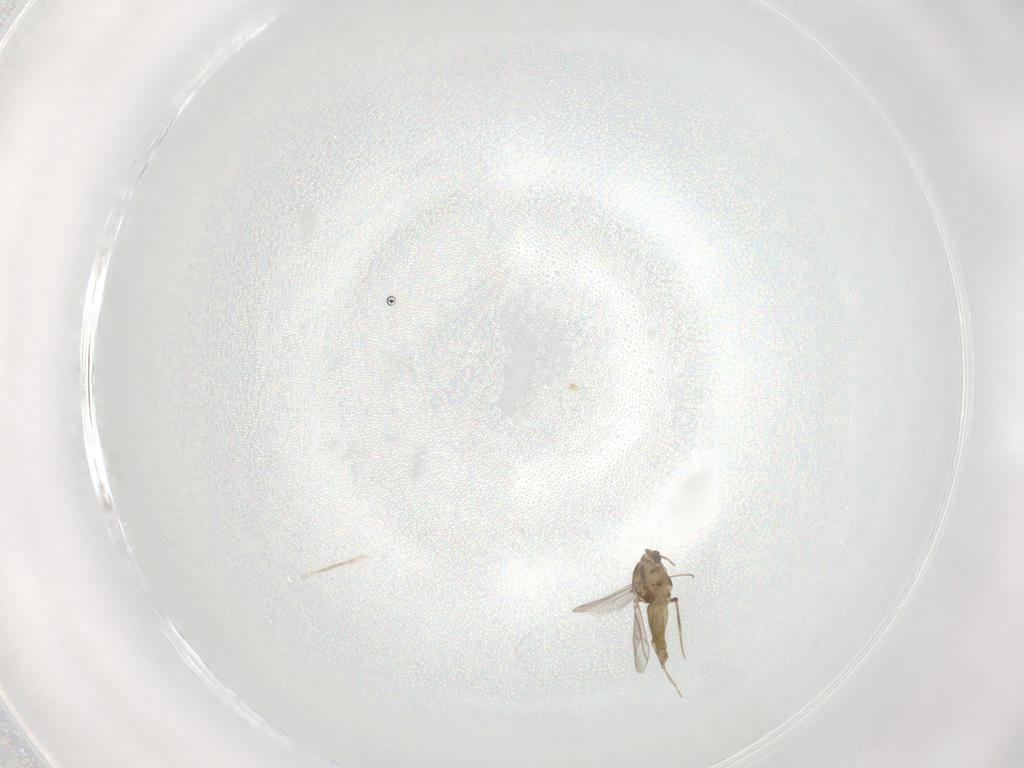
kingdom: Animalia
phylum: Arthropoda
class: Insecta
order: Diptera
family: Chironomidae
